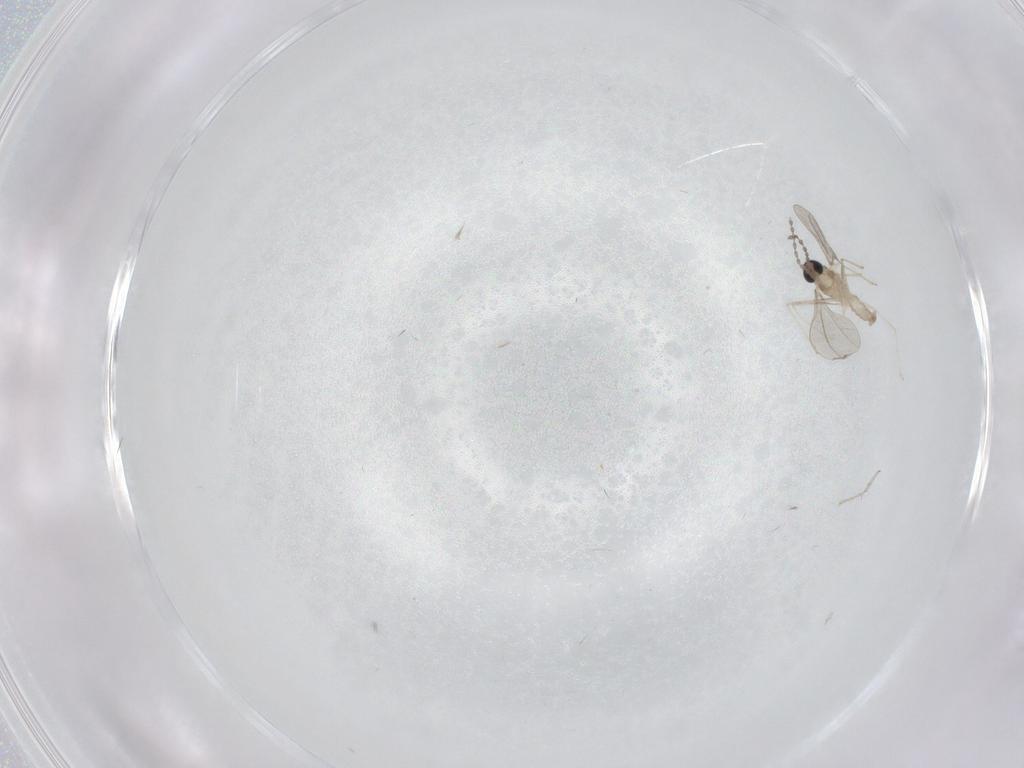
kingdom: Animalia
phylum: Arthropoda
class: Insecta
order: Diptera
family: Cecidomyiidae
